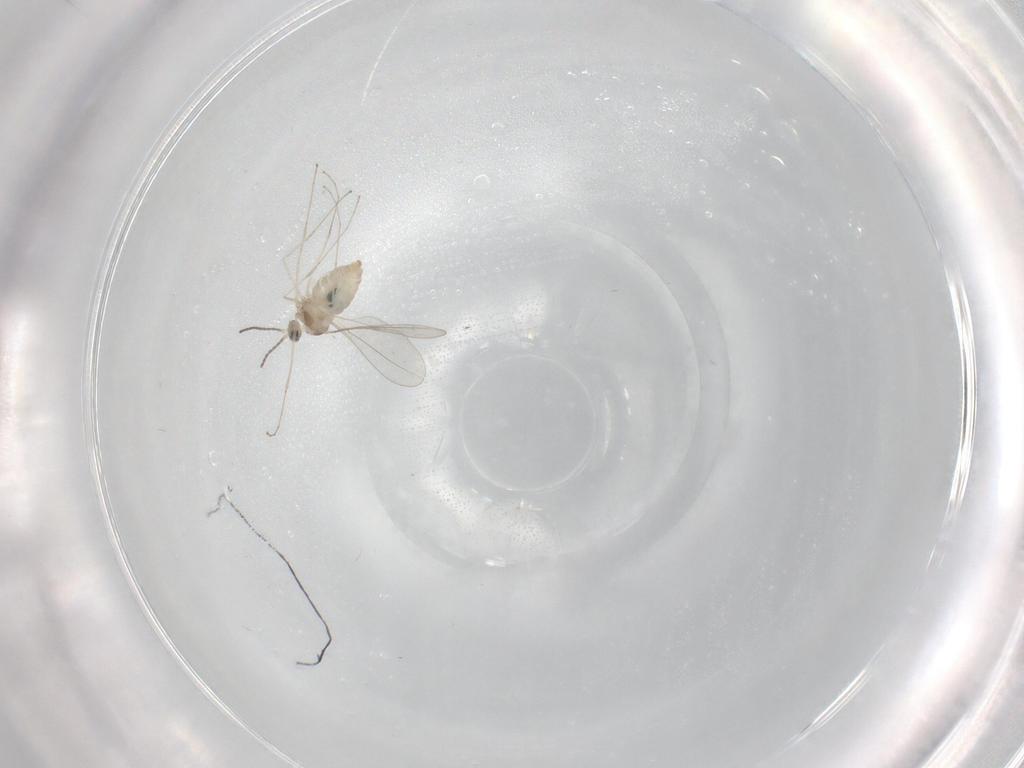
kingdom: Animalia
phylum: Arthropoda
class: Insecta
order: Diptera
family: Cecidomyiidae
